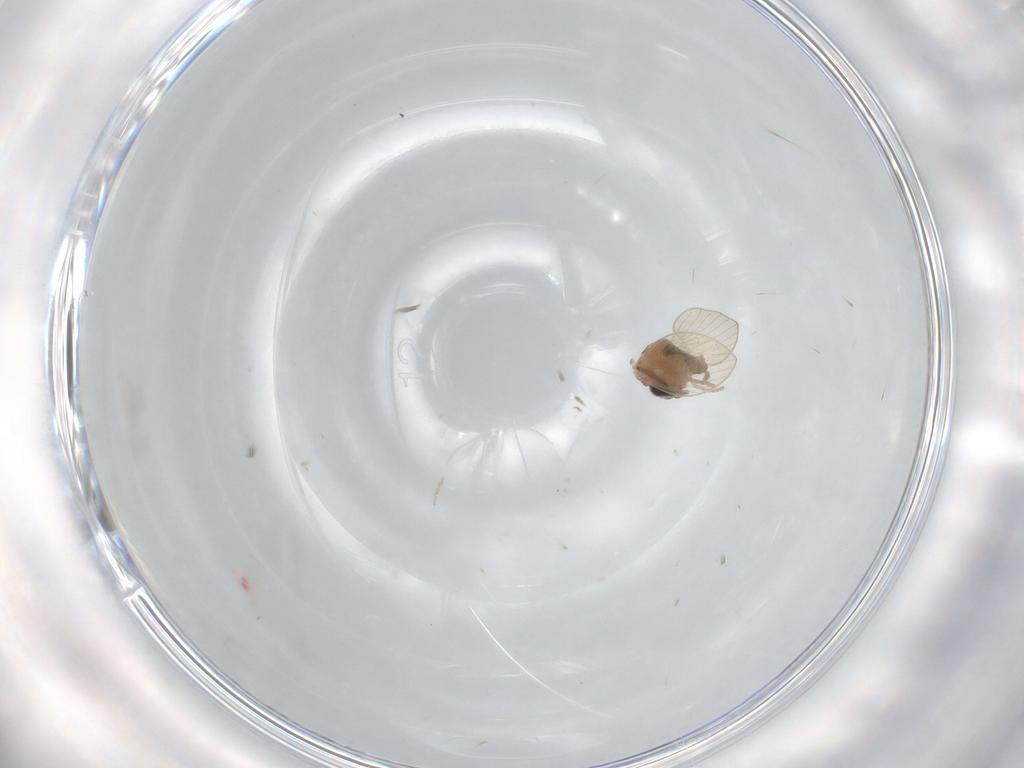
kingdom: Animalia
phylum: Arthropoda
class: Insecta
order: Diptera
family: Psychodidae
